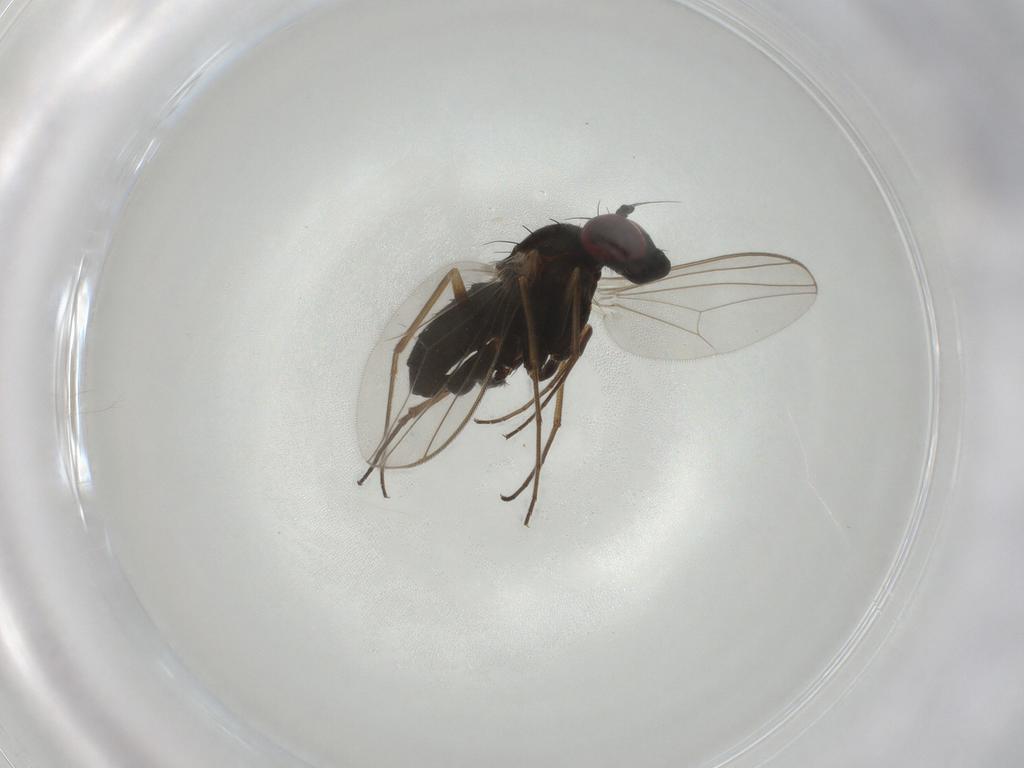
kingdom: Animalia
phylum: Arthropoda
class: Insecta
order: Diptera
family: Dolichopodidae
